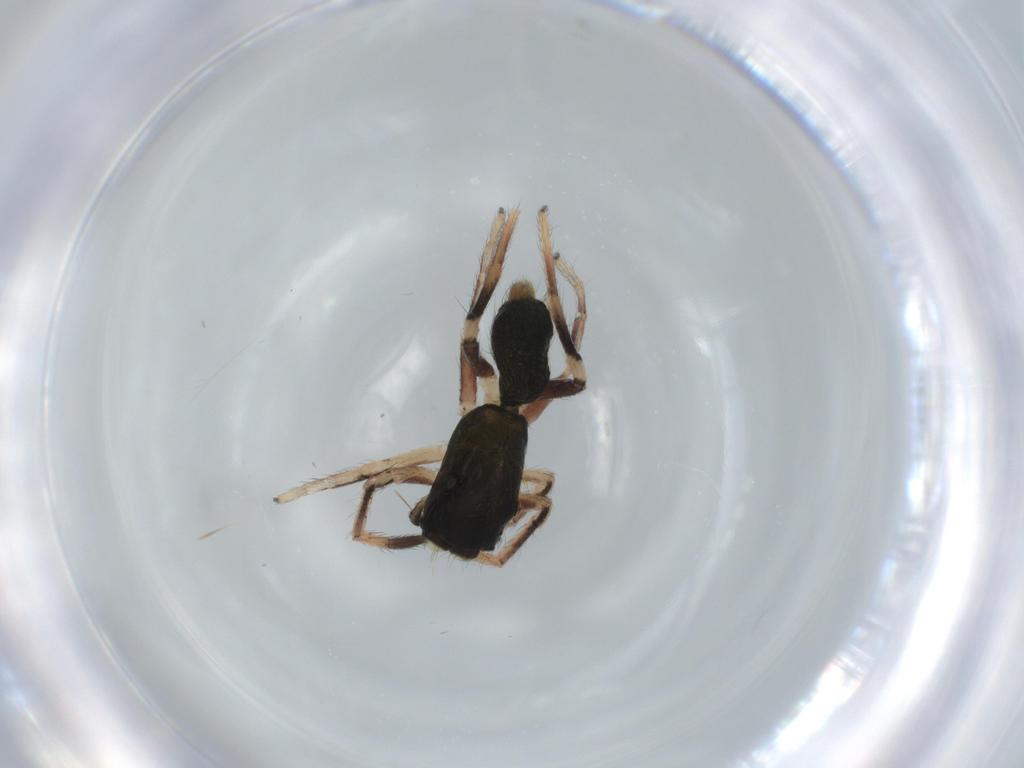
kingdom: Animalia
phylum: Arthropoda
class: Arachnida
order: Araneae
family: Salticidae
